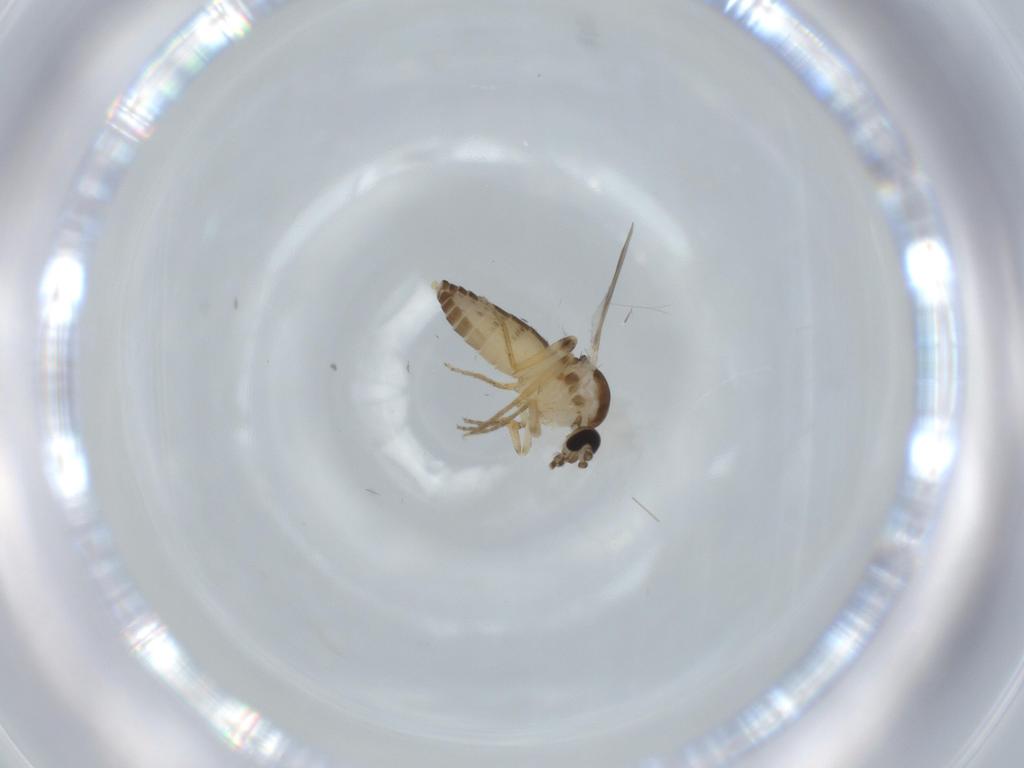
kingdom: Animalia
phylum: Arthropoda
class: Insecta
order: Diptera
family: Ceratopogonidae
